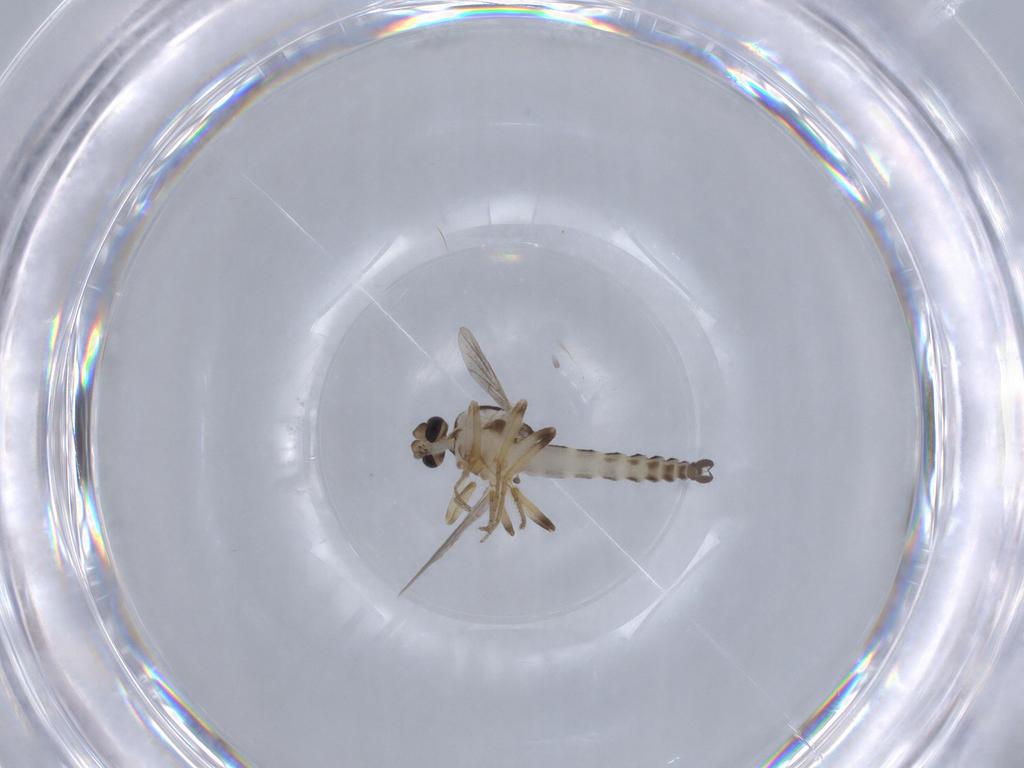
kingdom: Animalia
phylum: Arthropoda
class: Insecta
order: Diptera
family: Ceratopogonidae
